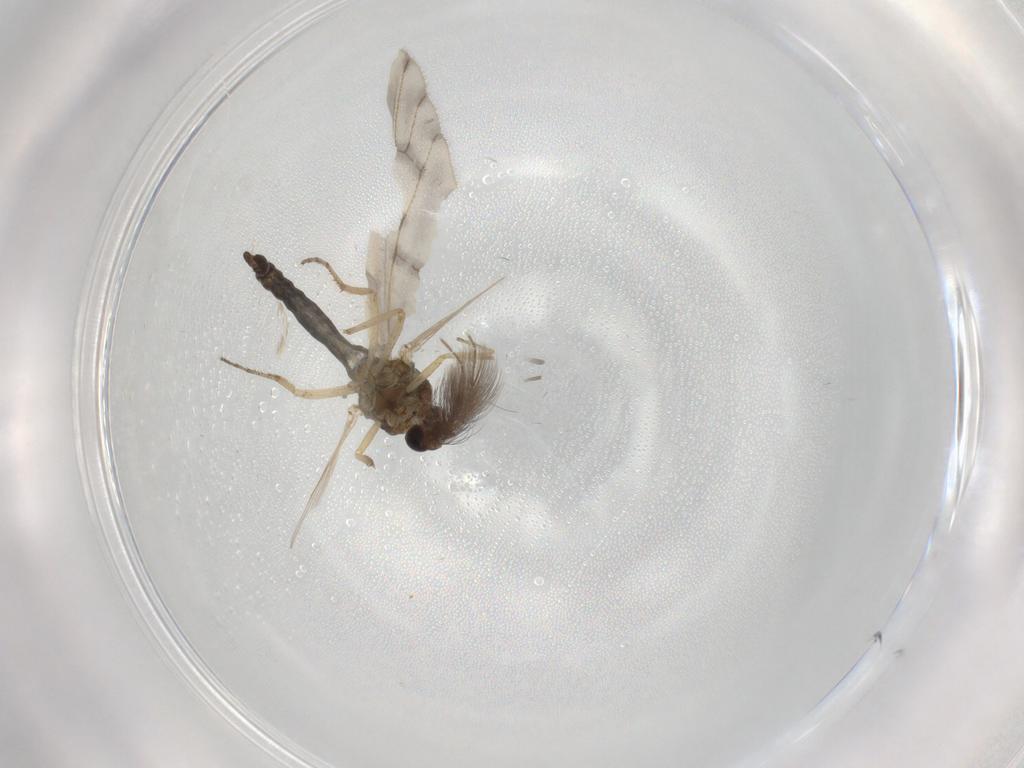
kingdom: Animalia
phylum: Arthropoda
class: Insecta
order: Diptera
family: Ceratopogonidae
